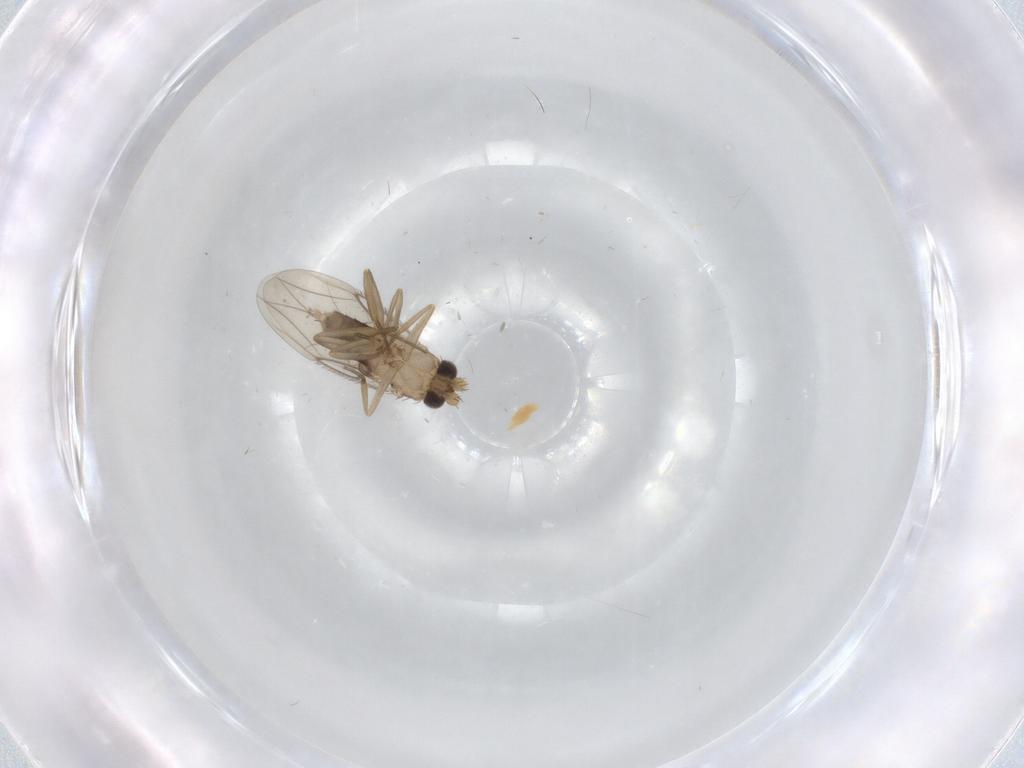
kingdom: Animalia
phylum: Arthropoda
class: Insecta
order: Diptera
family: Phoridae
